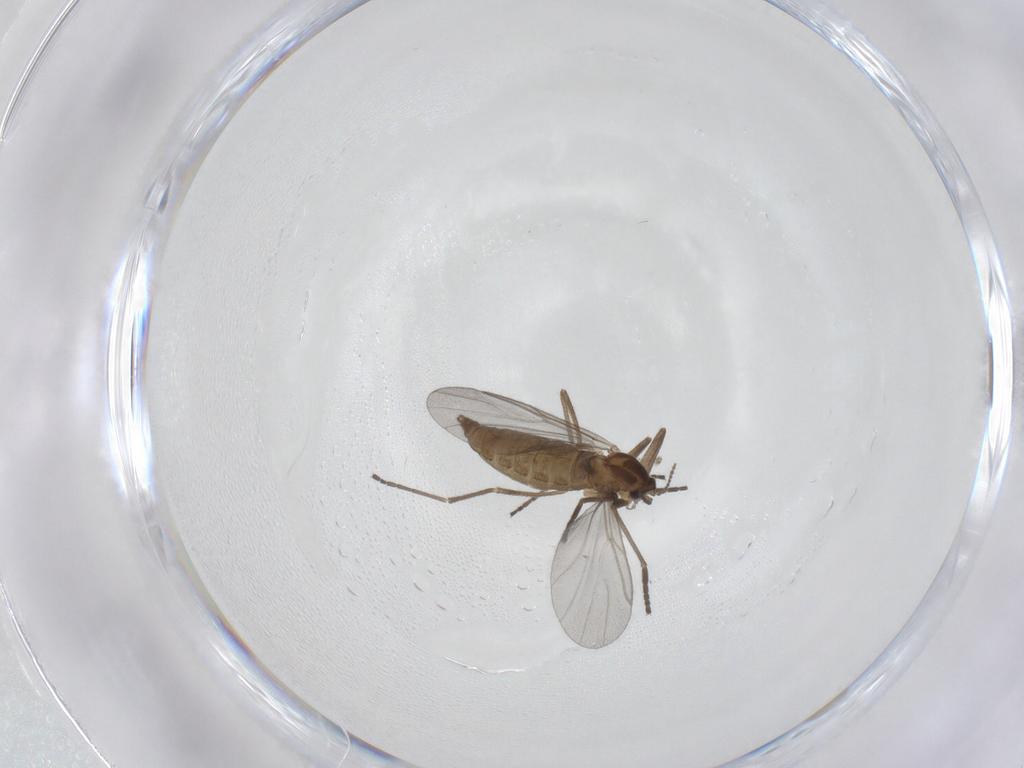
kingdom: Animalia
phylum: Arthropoda
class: Insecta
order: Diptera
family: Cecidomyiidae
